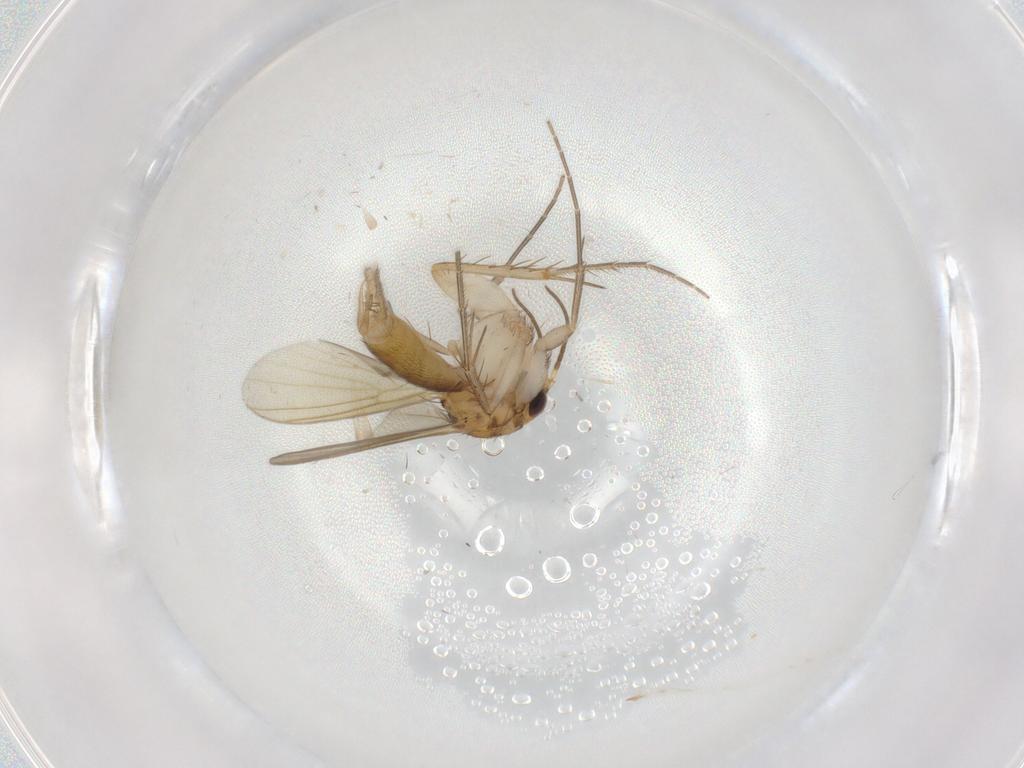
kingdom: Animalia
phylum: Arthropoda
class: Insecta
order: Diptera
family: Mycetophilidae
